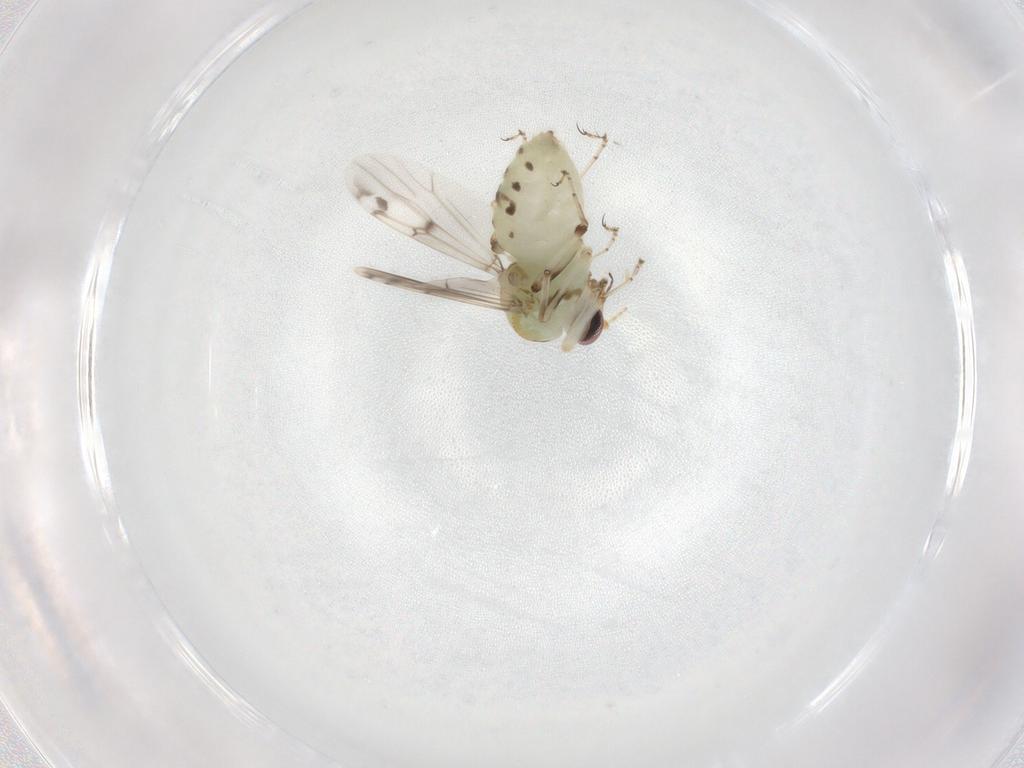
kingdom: Animalia
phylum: Arthropoda
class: Insecta
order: Diptera
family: Ceratopogonidae
